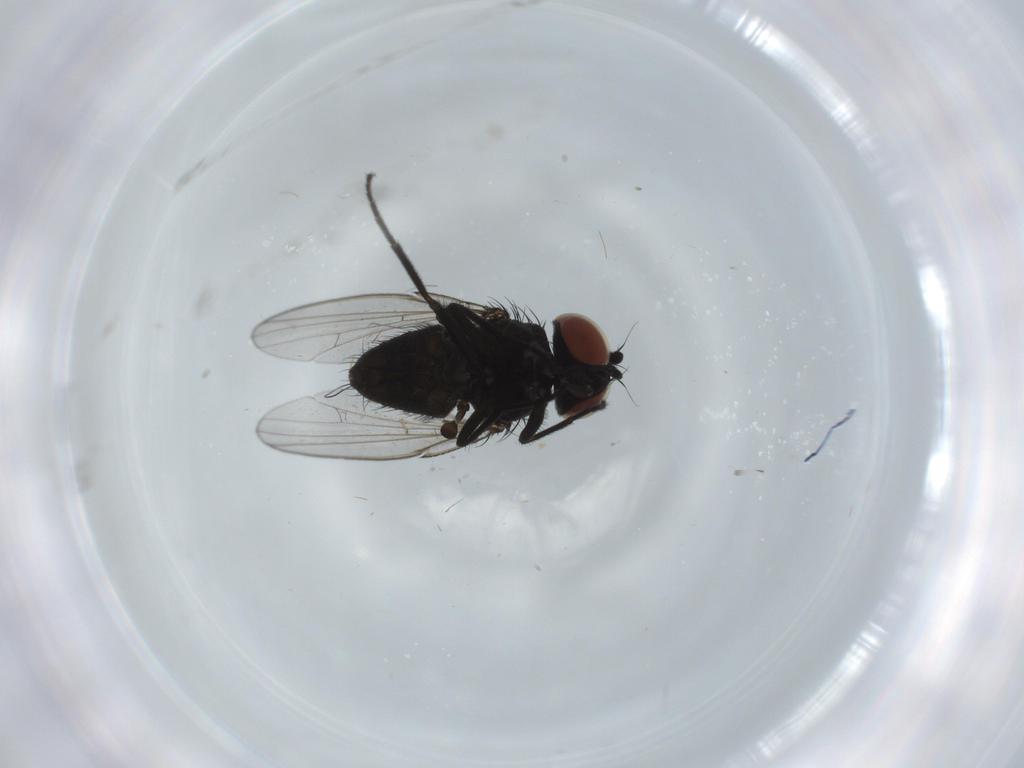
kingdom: Animalia
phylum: Arthropoda
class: Insecta
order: Diptera
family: Milichiidae
